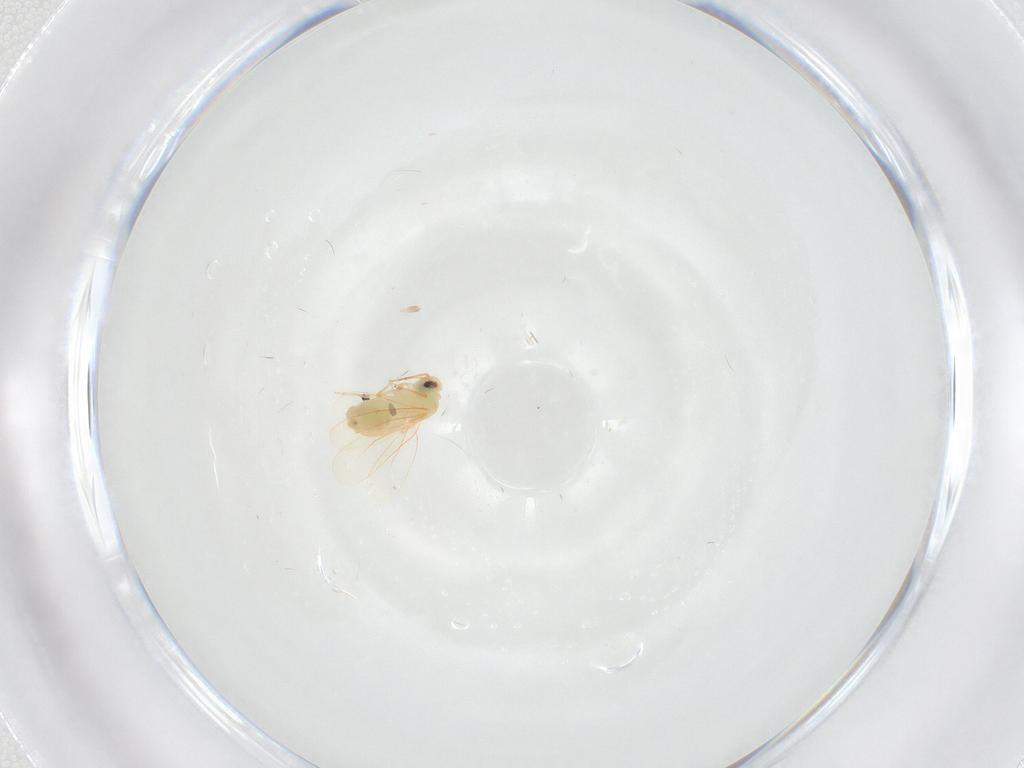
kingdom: Animalia
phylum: Arthropoda
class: Insecta
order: Hemiptera
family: Aleyrodidae
